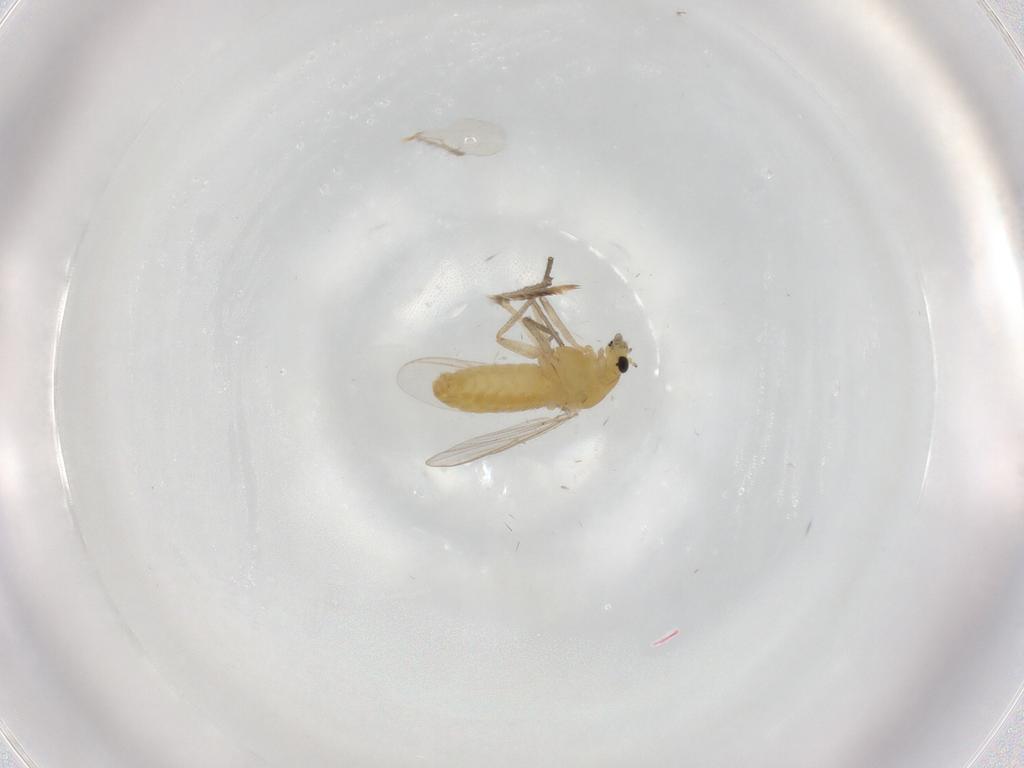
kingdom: Animalia
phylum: Arthropoda
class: Insecta
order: Diptera
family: Chironomidae
